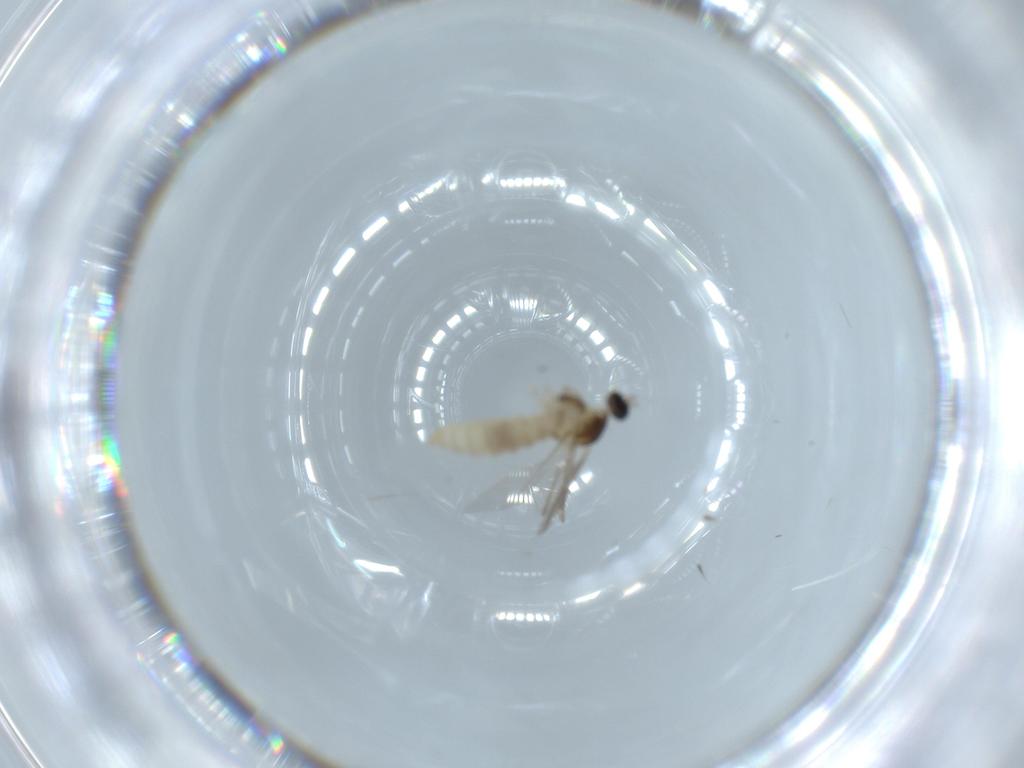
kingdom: Animalia
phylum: Arthropoda
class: Insecta
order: Diptera
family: Cecidomyiidae
